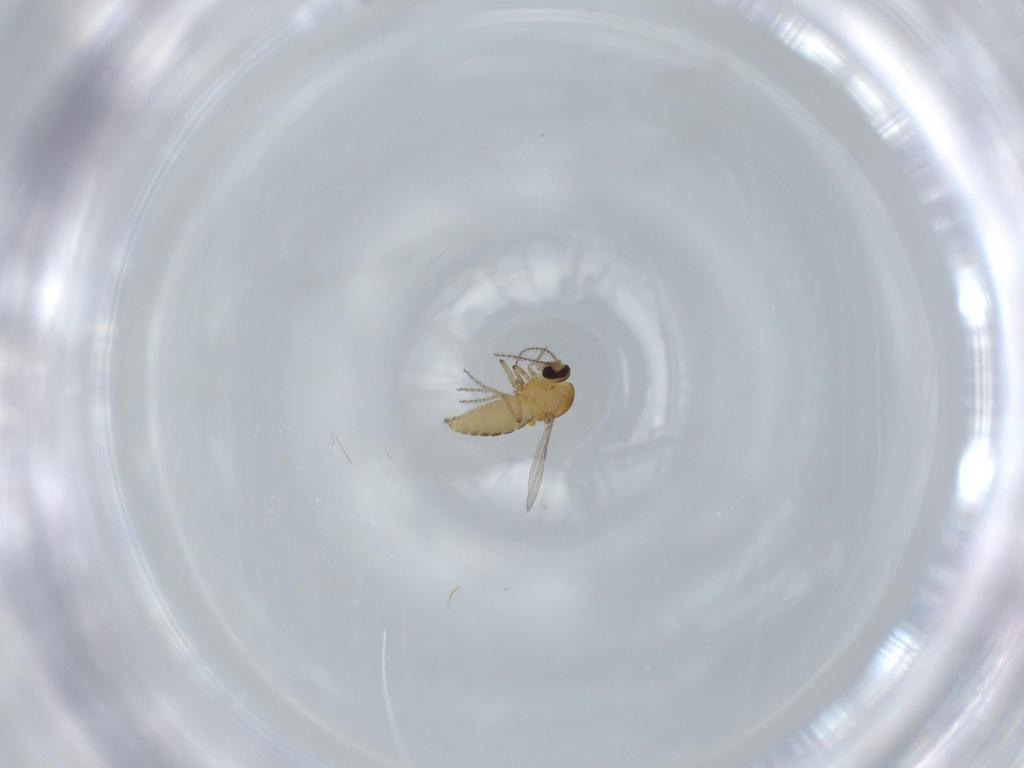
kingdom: Animalia
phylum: Arthropoda
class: Insecta
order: Diptera
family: Ceratopogonidae
